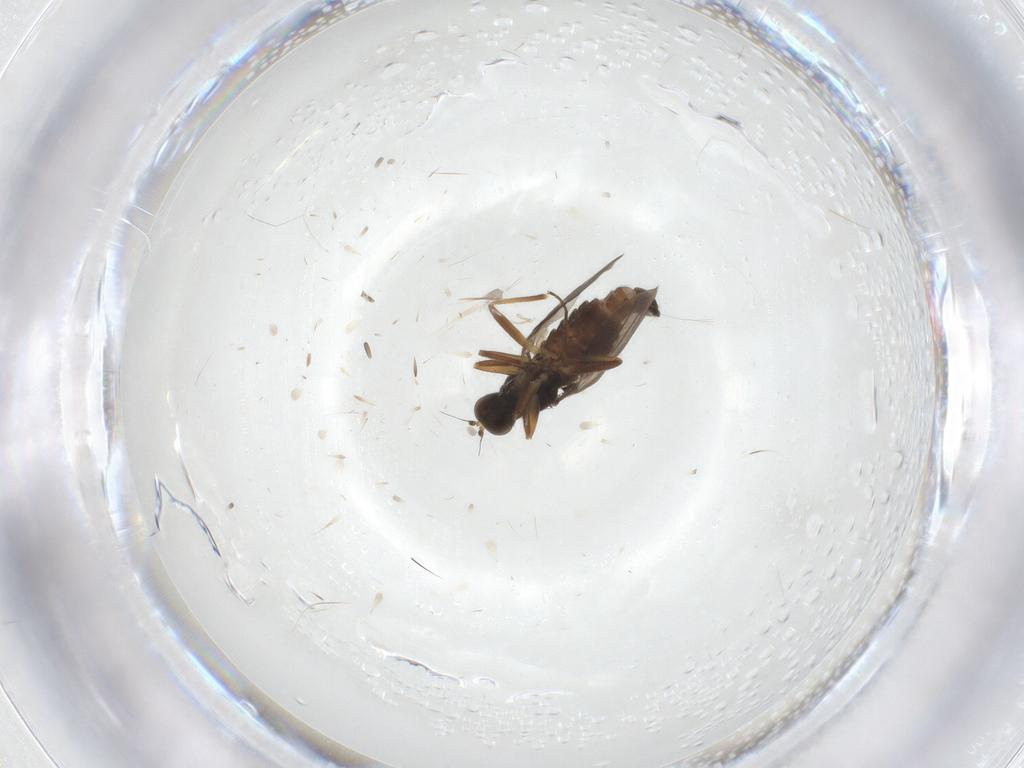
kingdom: Animalia
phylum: Arthropoda
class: Insecta
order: Diptera
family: Hybotidae
